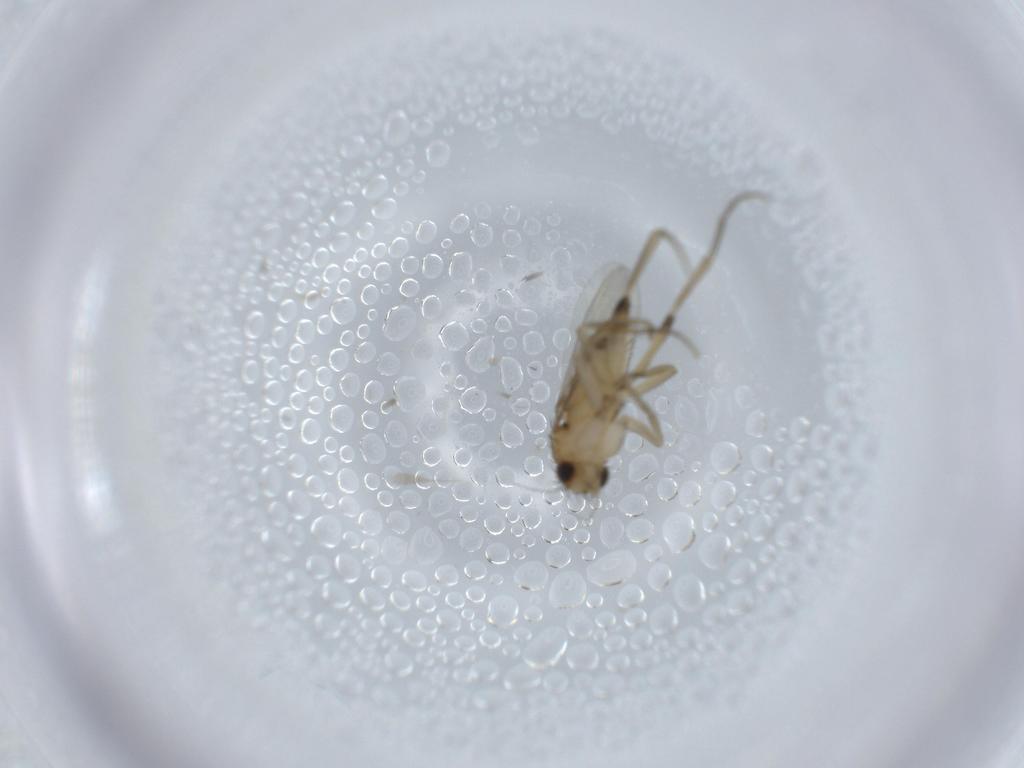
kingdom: Animalia
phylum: Arthropoda
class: Insecta
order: Diptera
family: Phoridae
